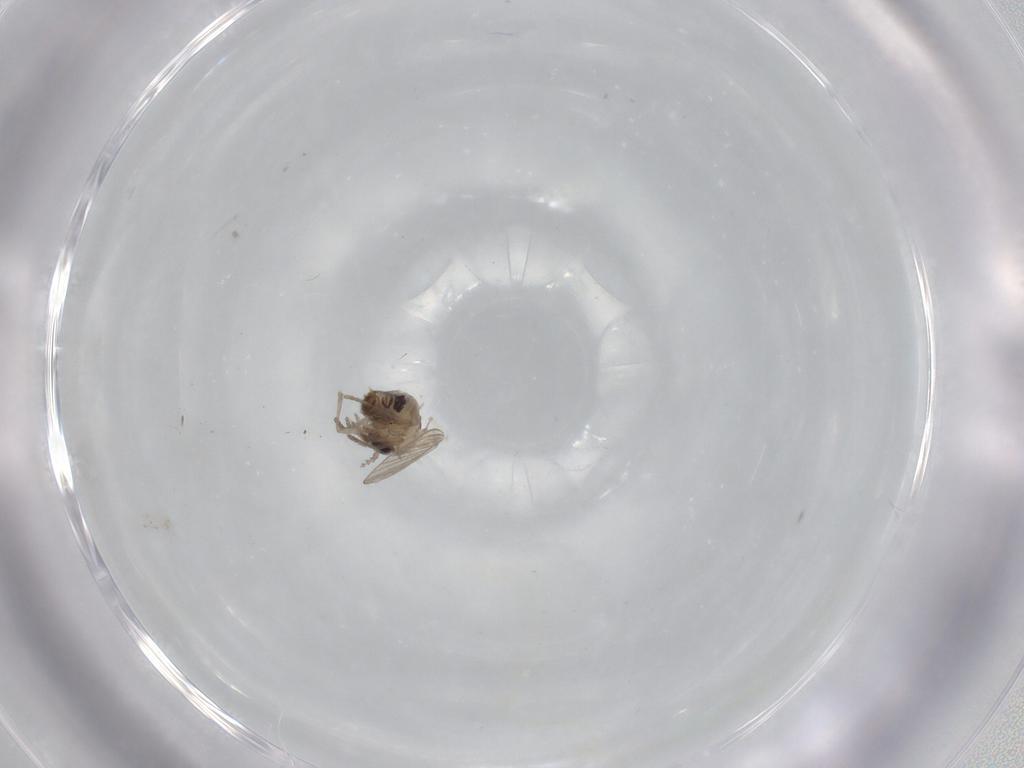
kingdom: Animalia
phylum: Arthropoda
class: Insecta
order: Diptera
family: Psychodidae
